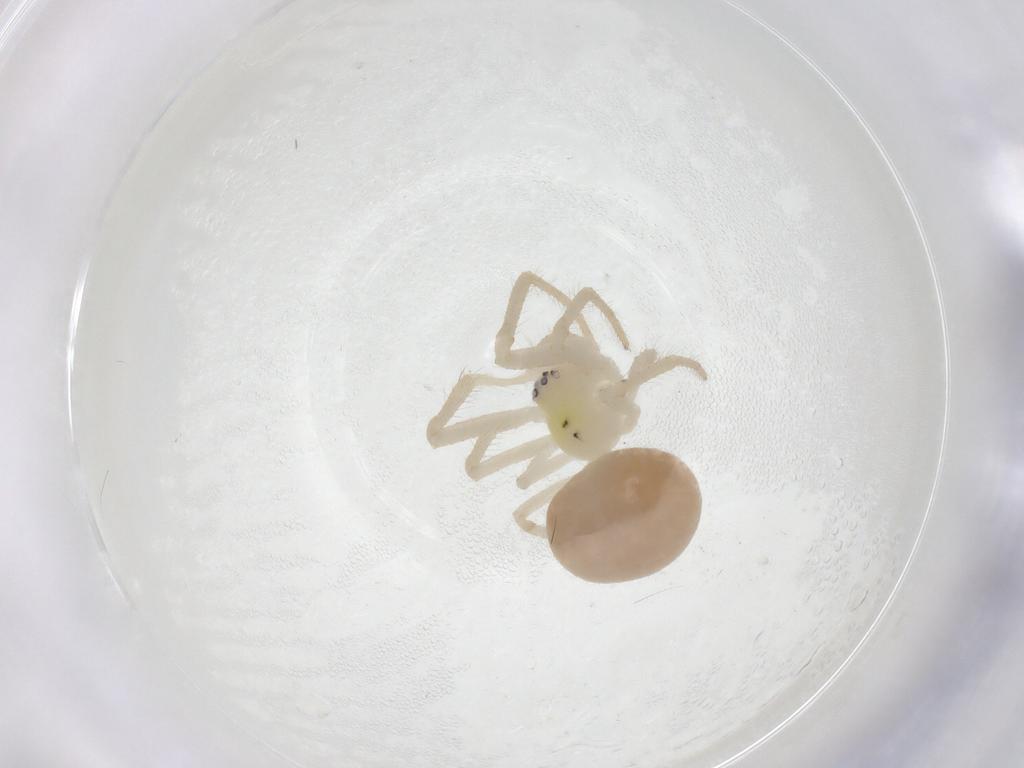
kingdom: Animalia
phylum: Arthropoda
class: Arachnida
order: Araneae
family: Theridiidae
